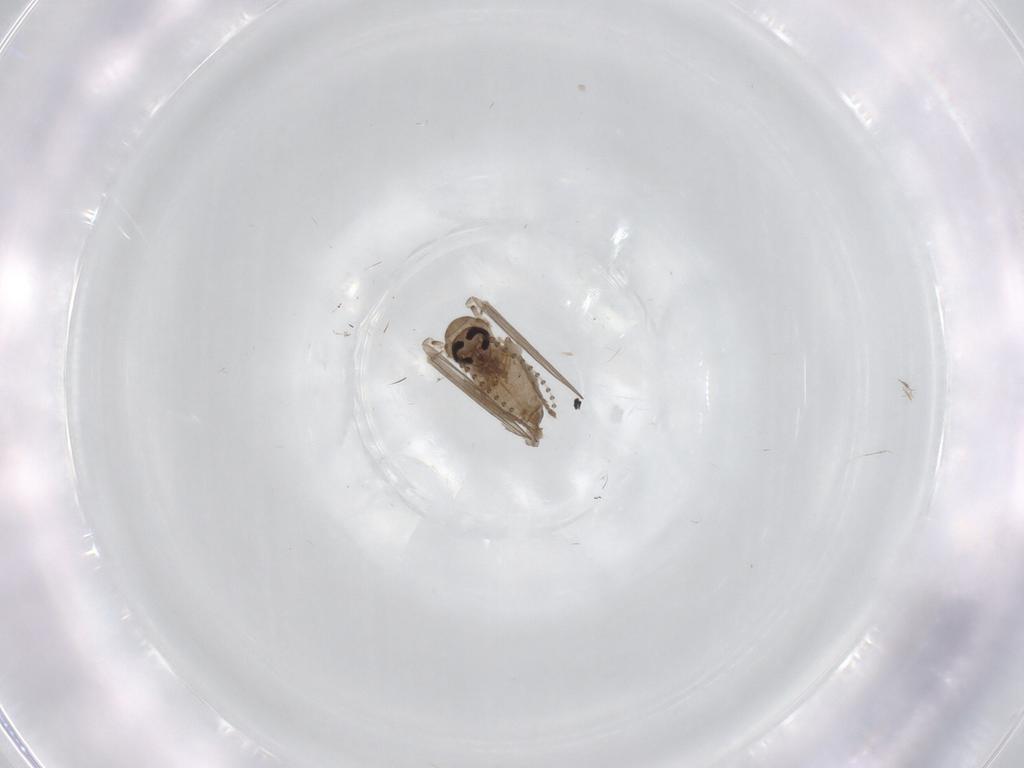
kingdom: Animalia
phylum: Arthropoda
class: Insecta
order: Diptera
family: Psychodidae
